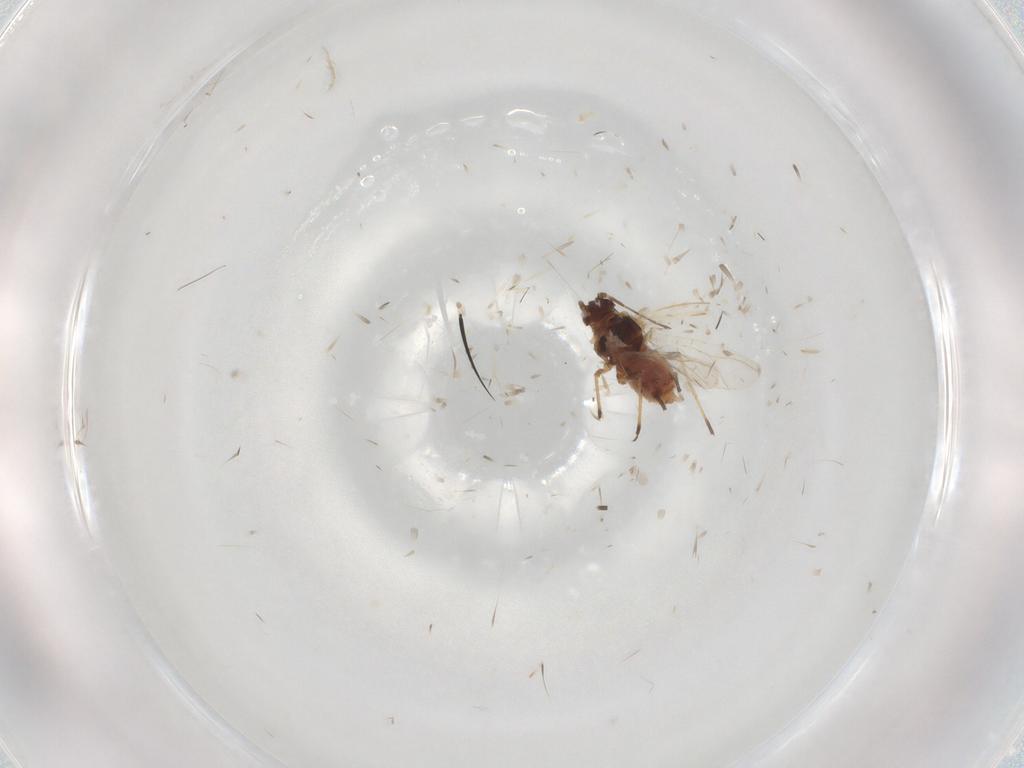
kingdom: Animalia
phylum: Arthropoda
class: Insecta
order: Hemiptera
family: Aphididae
